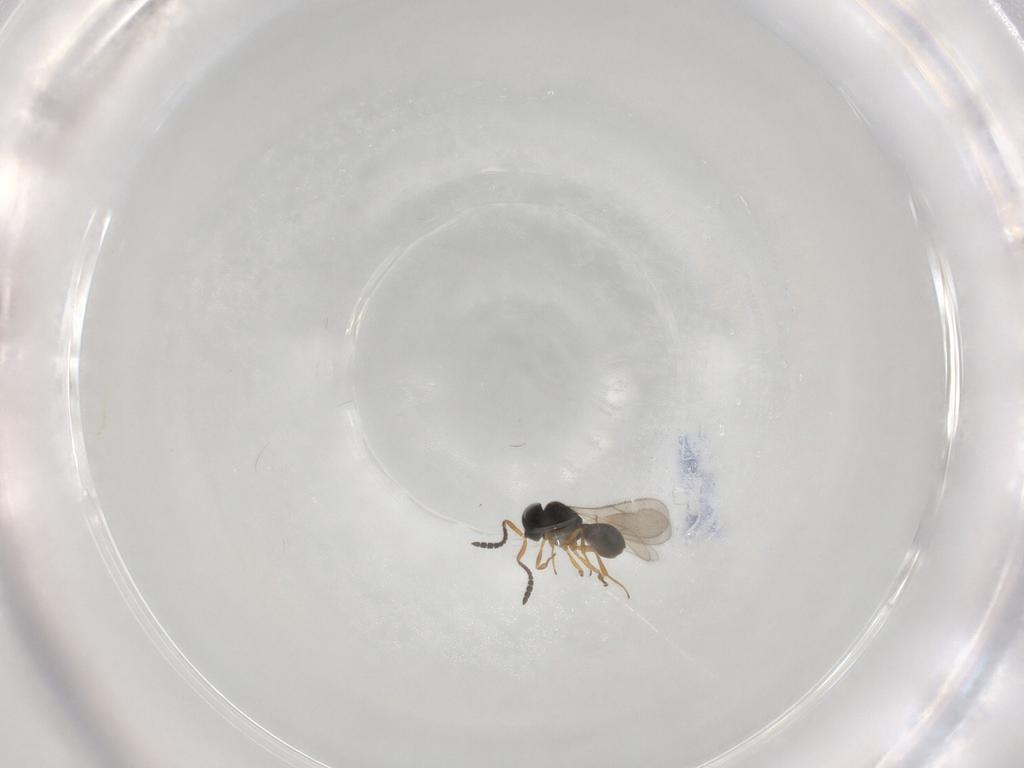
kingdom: Animalia
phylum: Arthropoda
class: Insecta
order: Hymenoptera
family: Scelionidae
